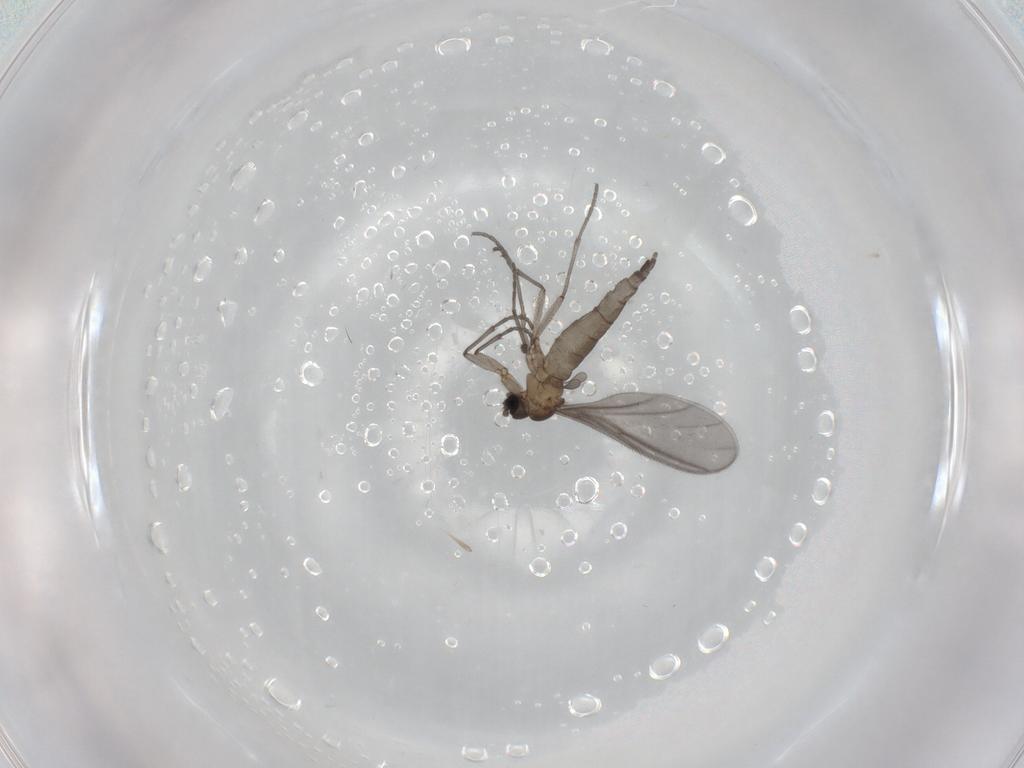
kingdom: Animalia
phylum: Arthropoda
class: Insecta
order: Diptera
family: Sciaridae
